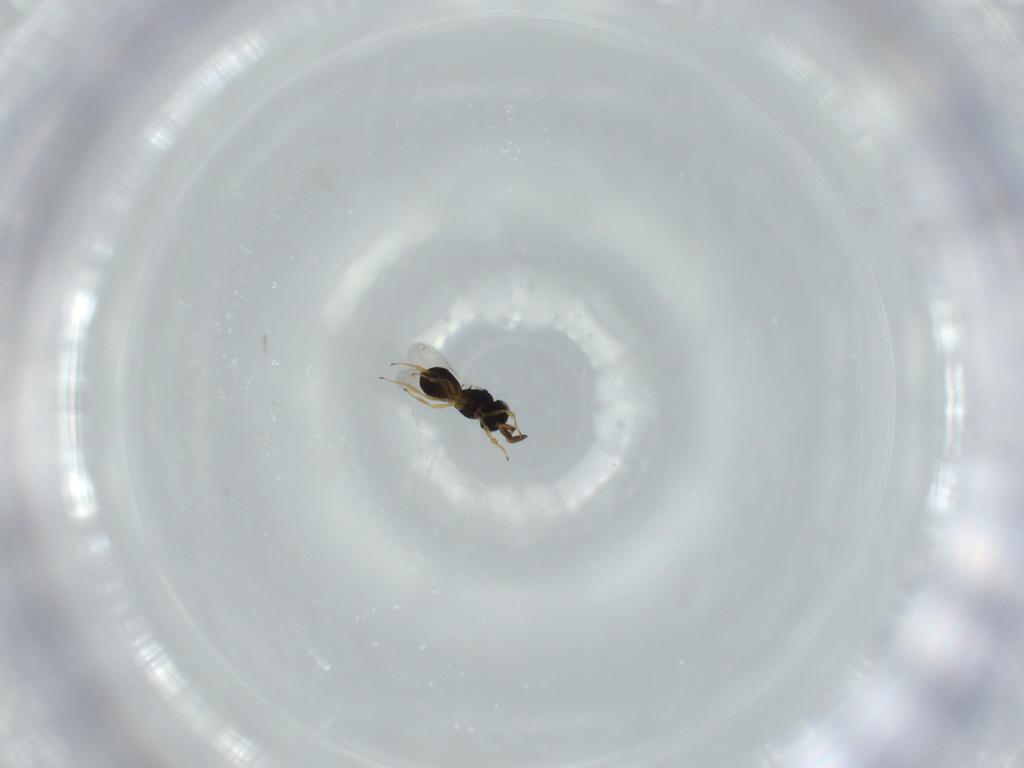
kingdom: Animalia
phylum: Arthropoda
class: Insecta
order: Hymenoptera
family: Scelionidae
